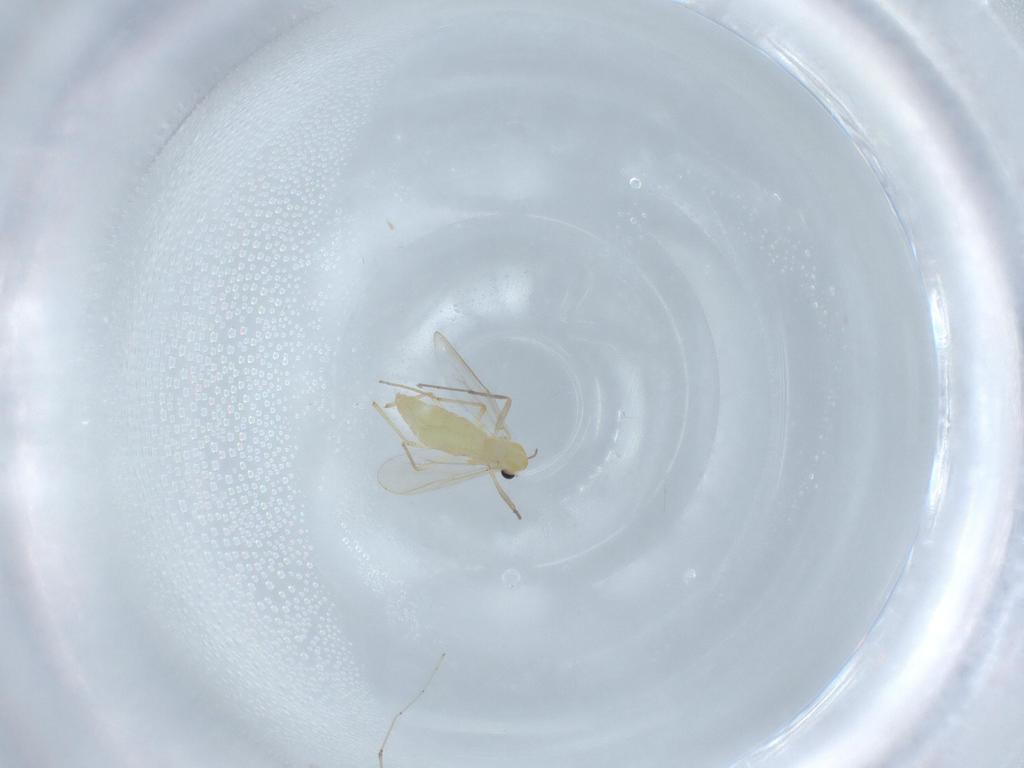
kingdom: Animalia
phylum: Arthropoda
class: Insecta
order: Diptera
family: Chironomidae
